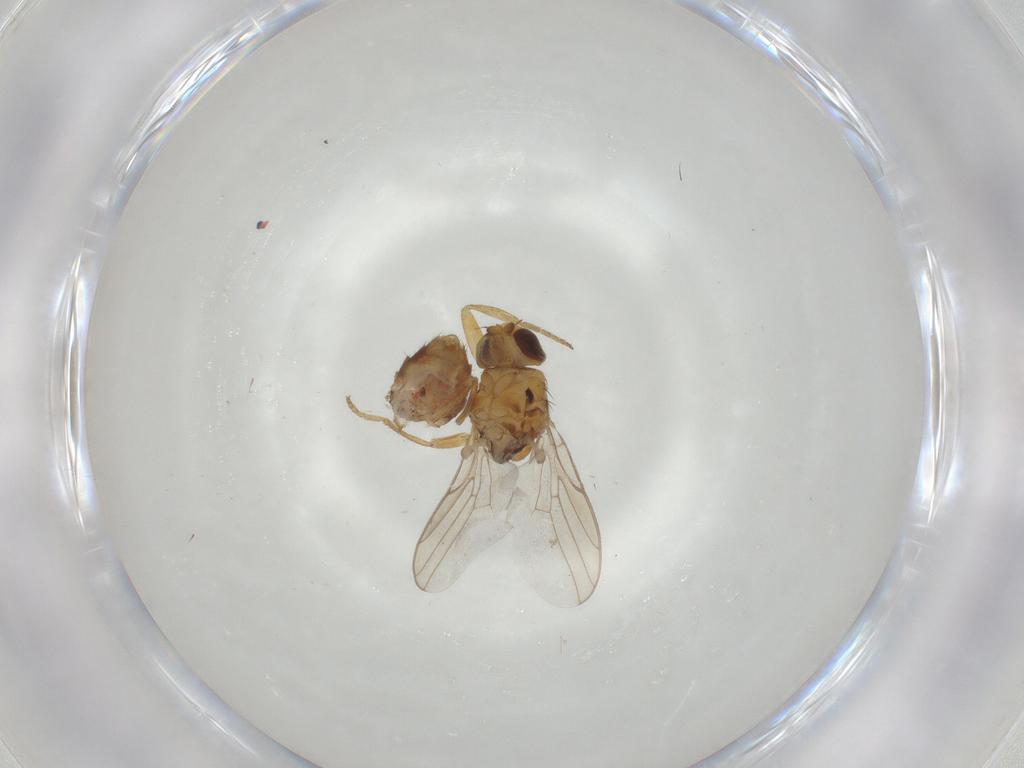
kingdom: Animalia
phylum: Arthropoda
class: Insecta
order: Diptera
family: Chloropidae
